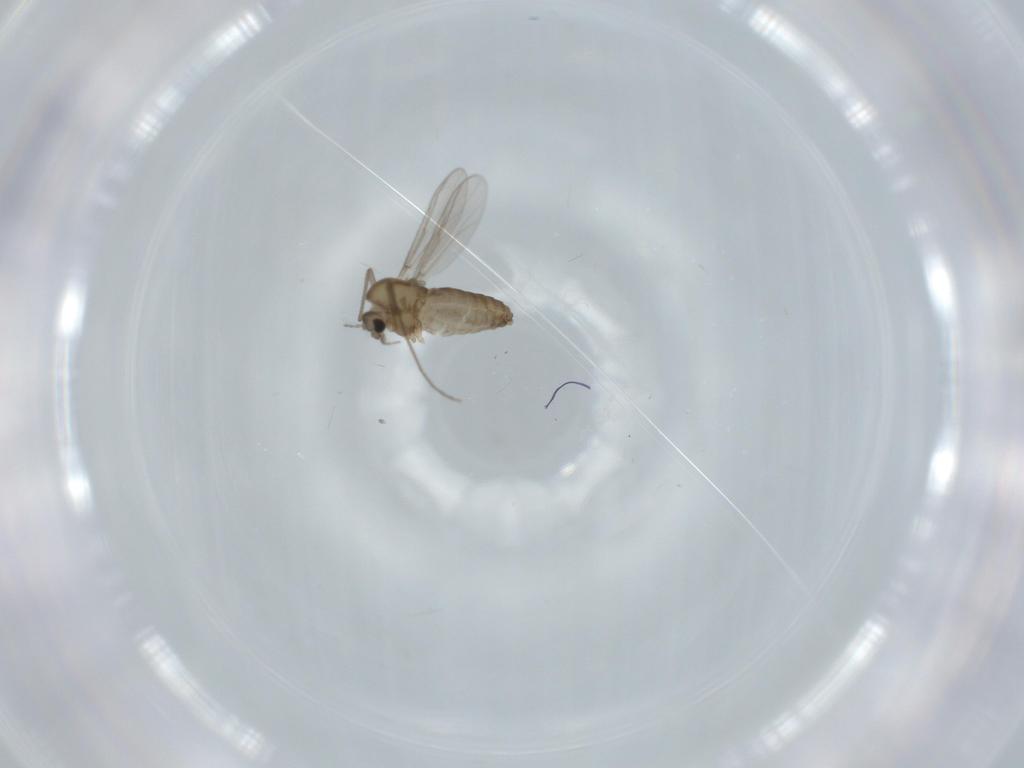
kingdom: Animalia
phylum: Arthropoda
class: Insecta
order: Diptera
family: Chironomidae
